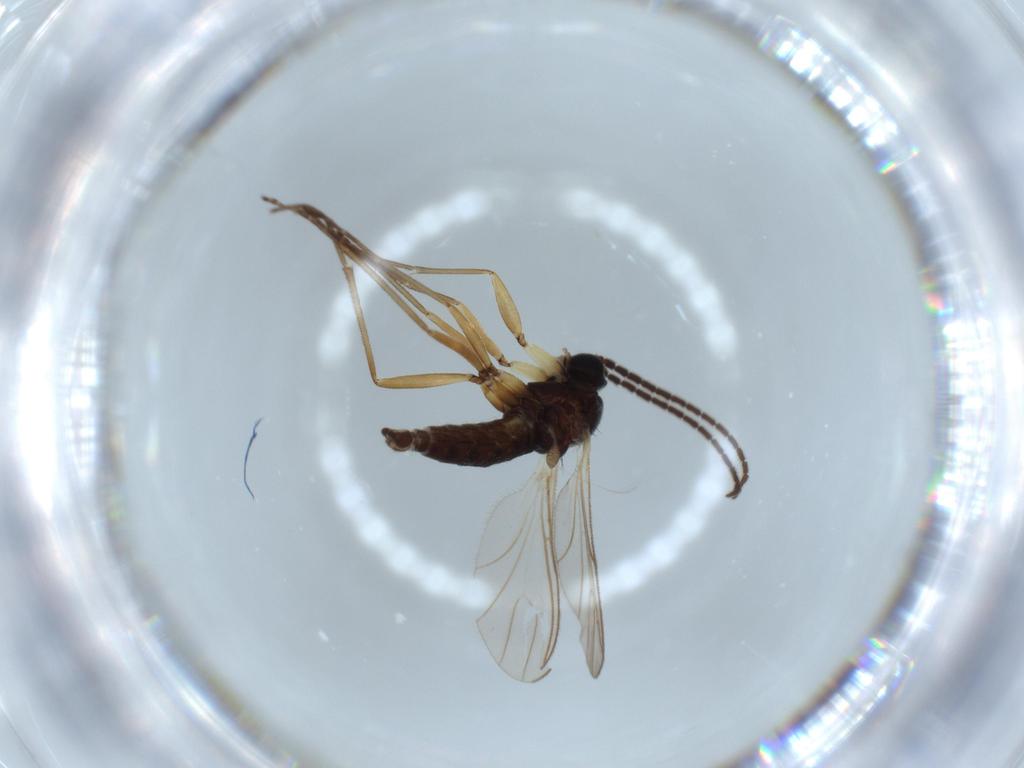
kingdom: Animalia
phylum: Arthropoda
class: Insecta
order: Diptera
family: Sciaridae
